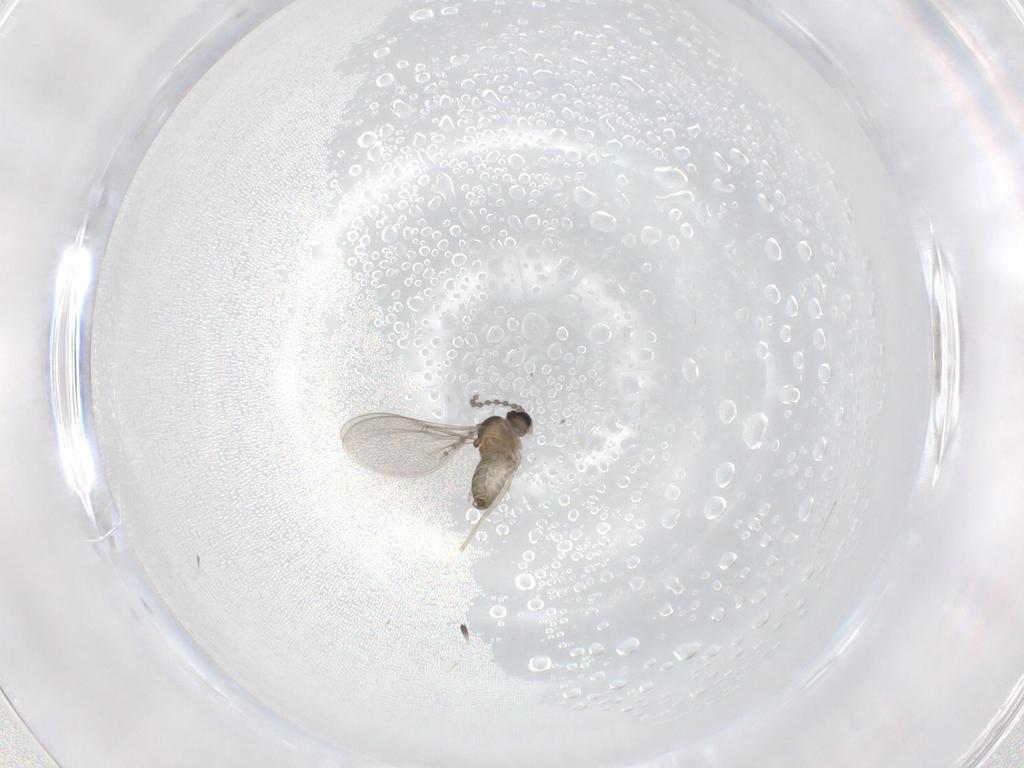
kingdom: Animalia
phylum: Arthropoda
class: Insecta
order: Diptera
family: Cecidomyiidae
